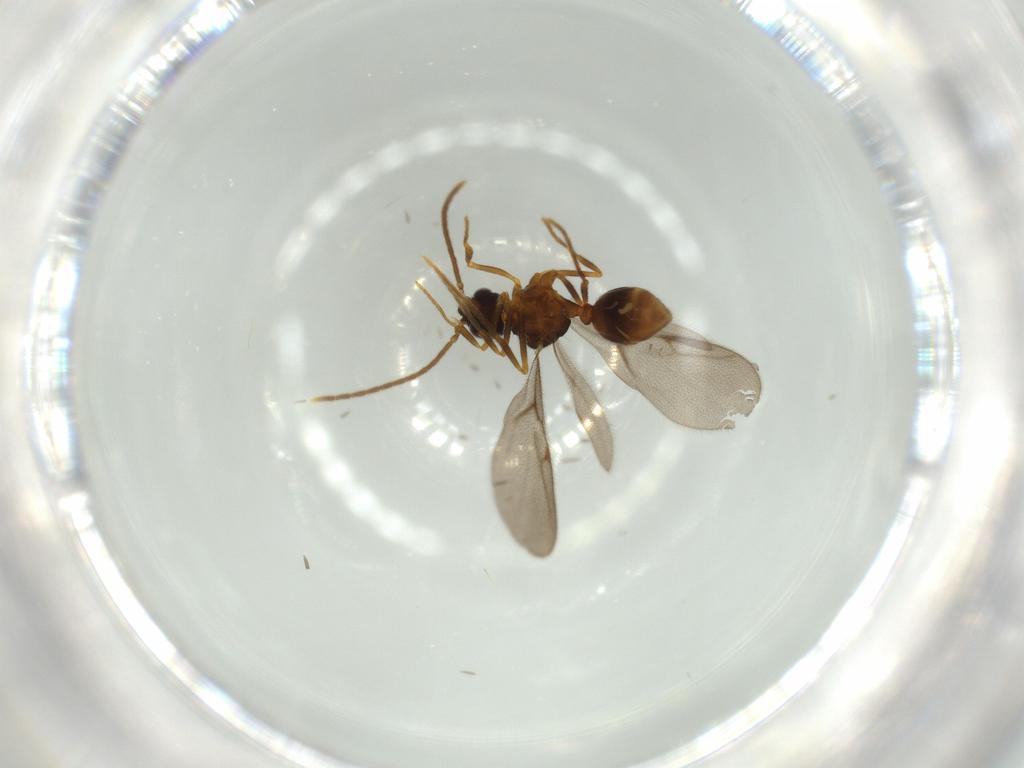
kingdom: Animalia
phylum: Arthropoda
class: Insecta
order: Hymenoptera
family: Formicidae
